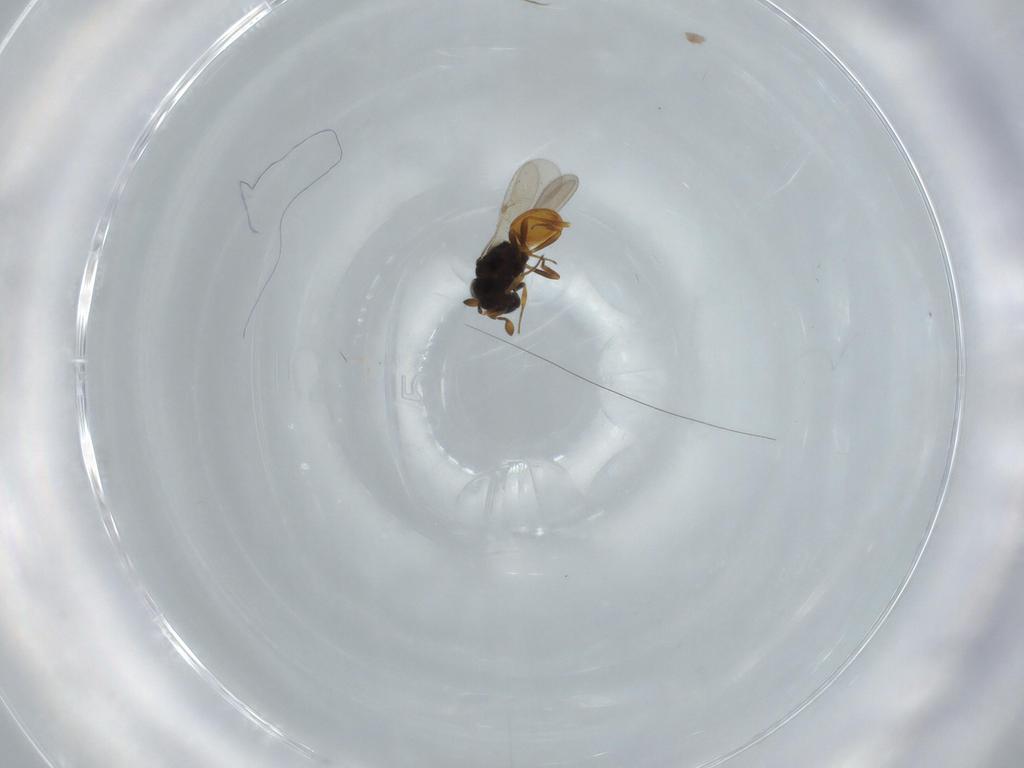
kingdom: Animalia
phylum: Arthropoda
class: Insecta
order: Hymenoptera
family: Scelionidae
